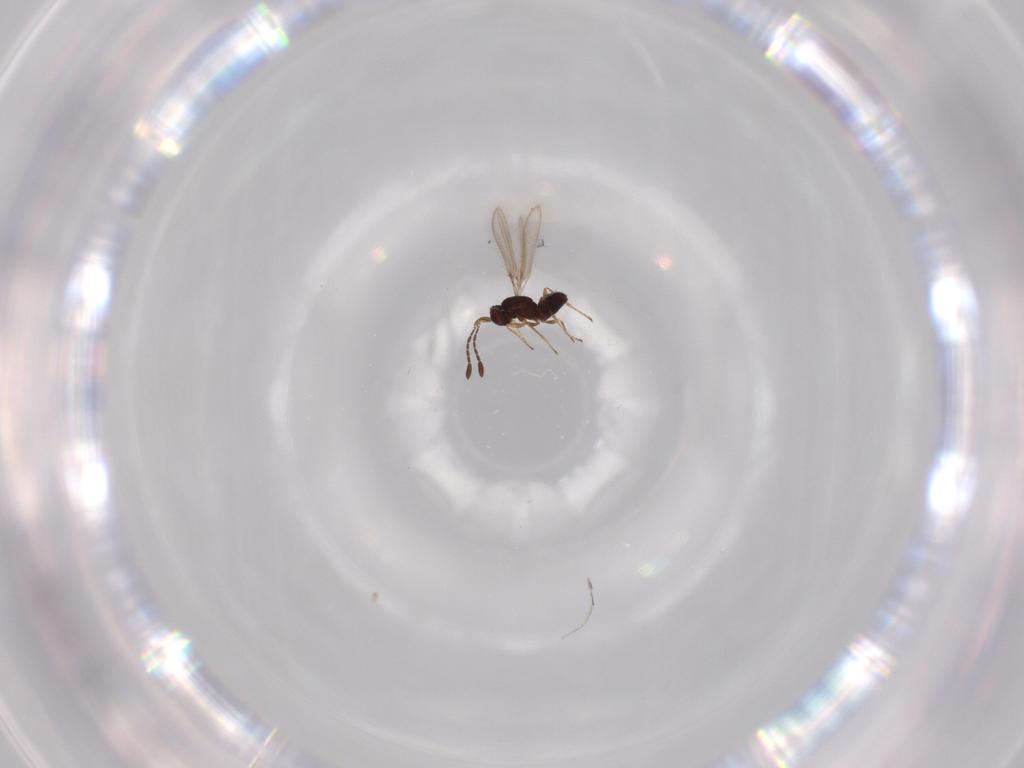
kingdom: Animalia
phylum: Arthropoda
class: Insecta
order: Hymenoptera
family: Mymaridae
